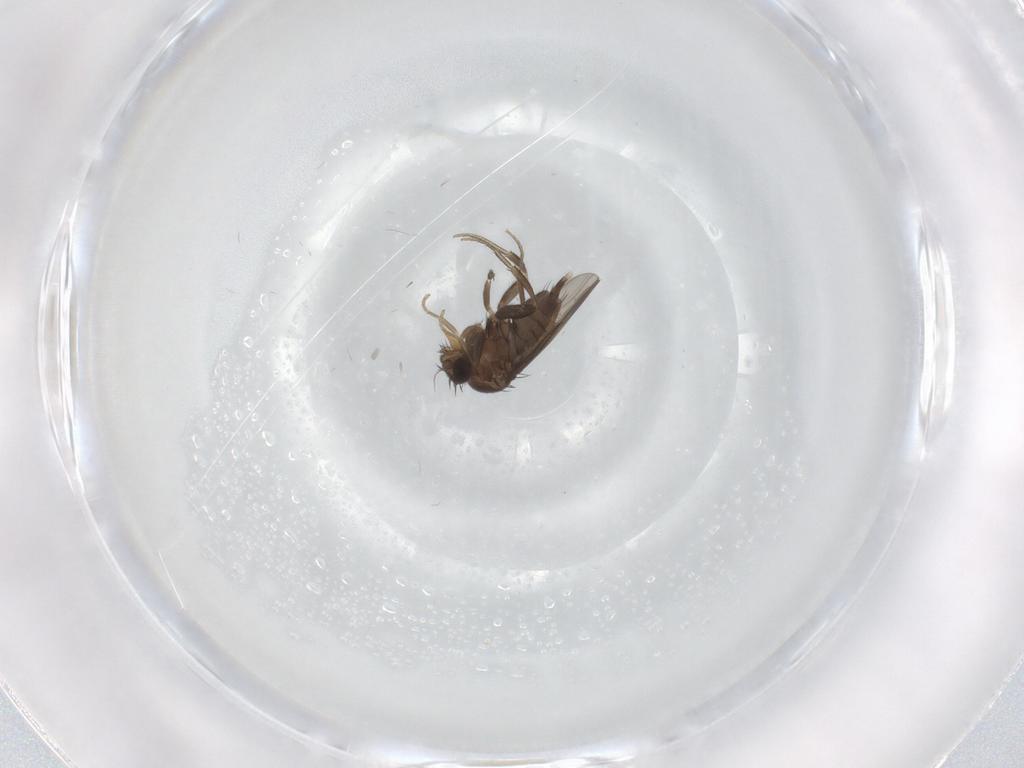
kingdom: Animalia
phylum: Arthropoda
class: Insecta
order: Diptera
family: Phoridae
